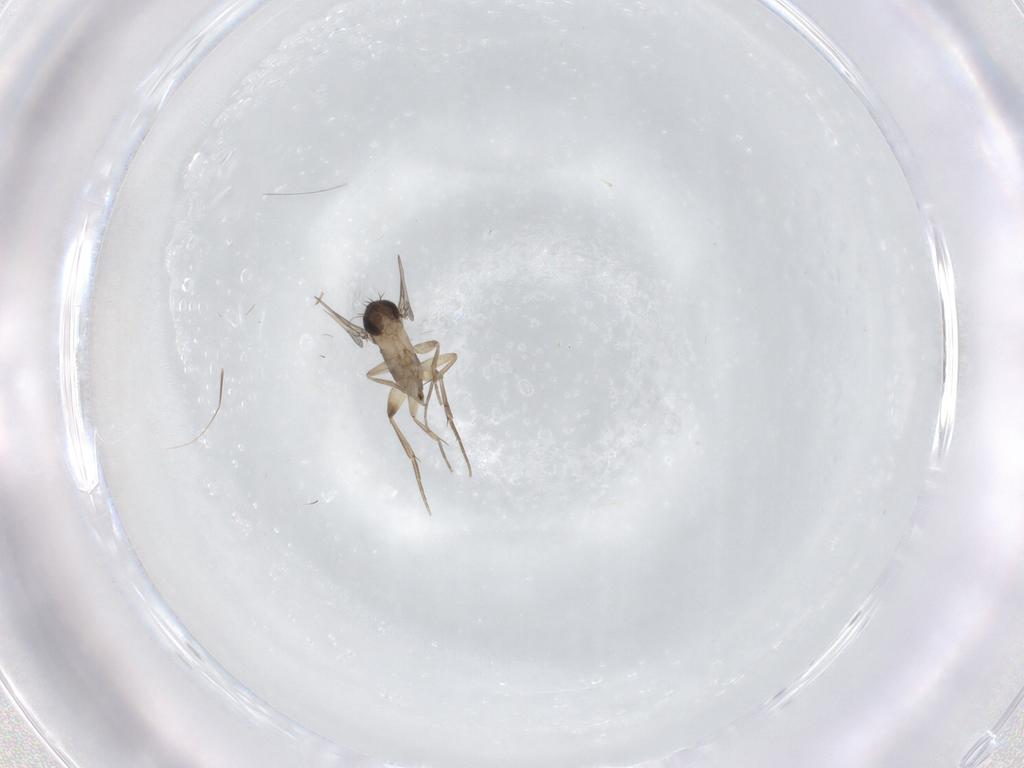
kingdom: Animalia
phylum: Arthropoda
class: Insecta
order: Diptera
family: Phoridae
